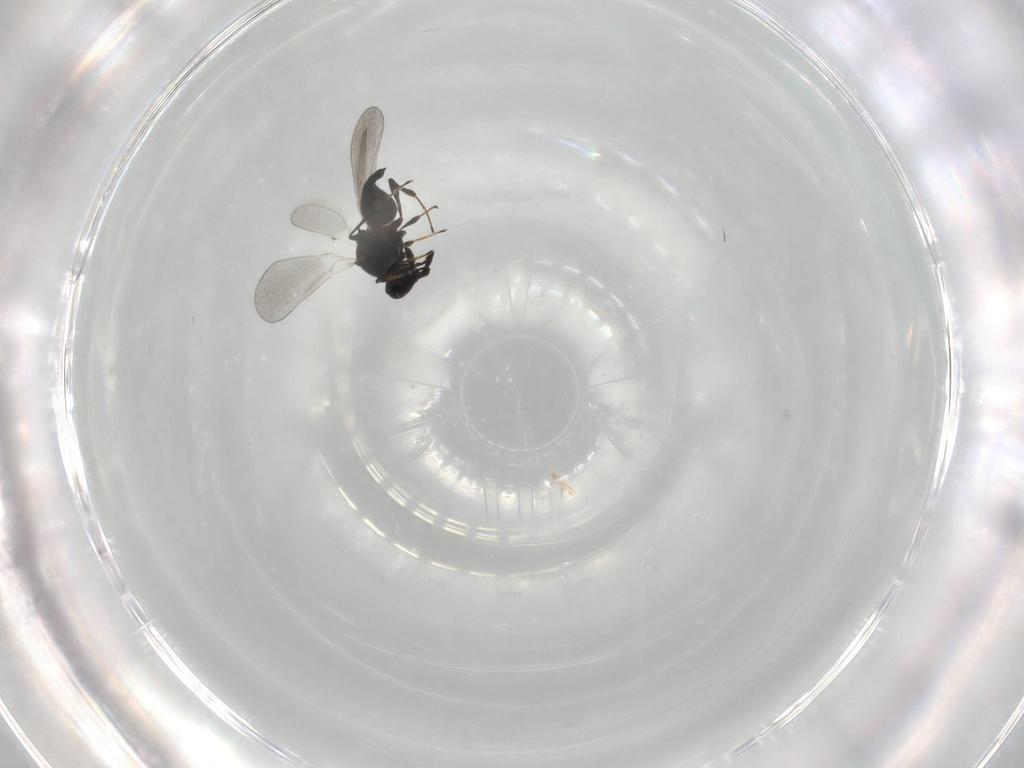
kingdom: Animalia
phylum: Arthropoda
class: Insecta
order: Hymenoptera
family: Platygastridae
